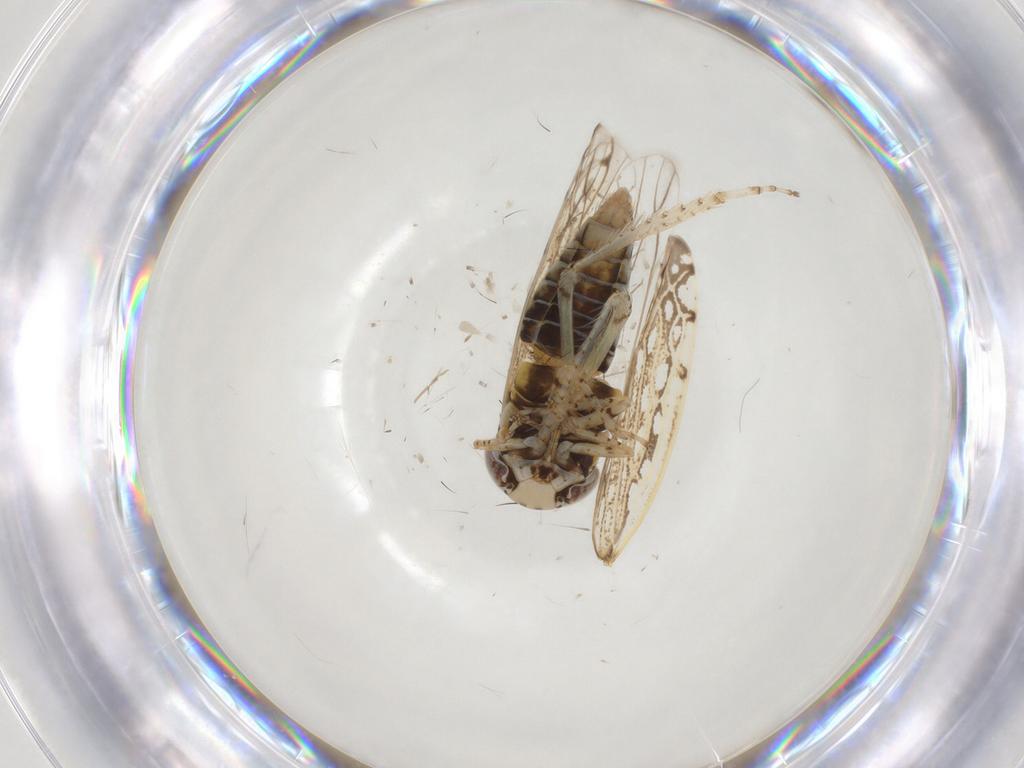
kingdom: Animalia
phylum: Arthropoda
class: Insecta
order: Hemiptera
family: Cicadellidae
